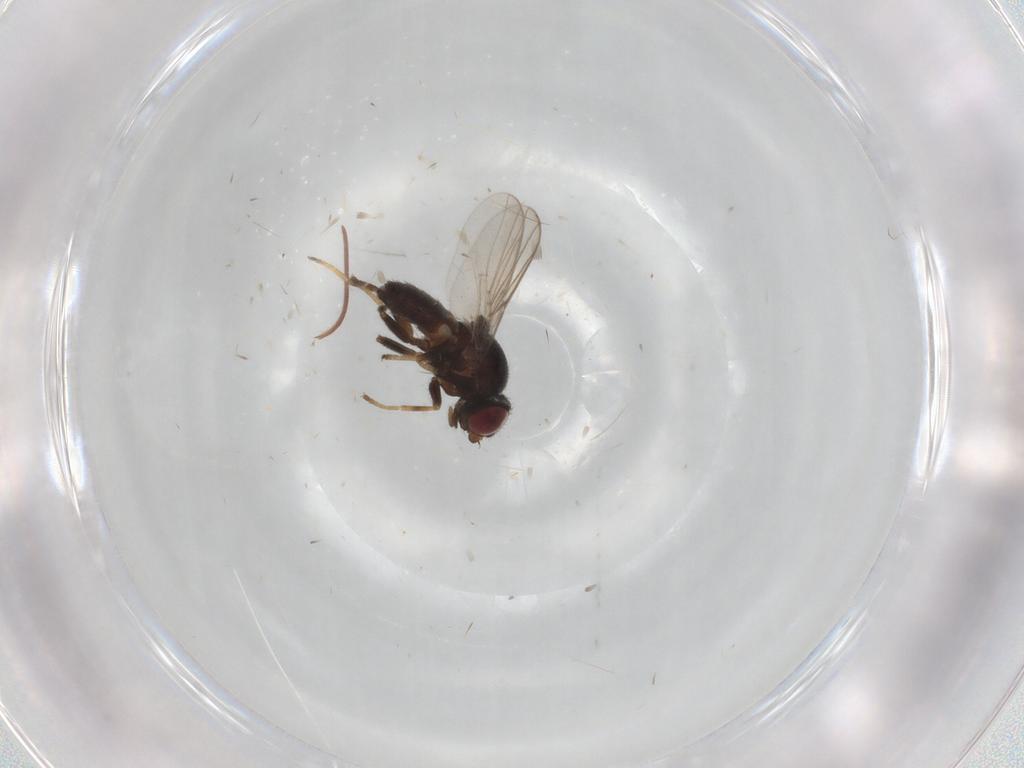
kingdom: Animalia
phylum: Arthropoda
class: Insecta
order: Diptera
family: Chloropidae
